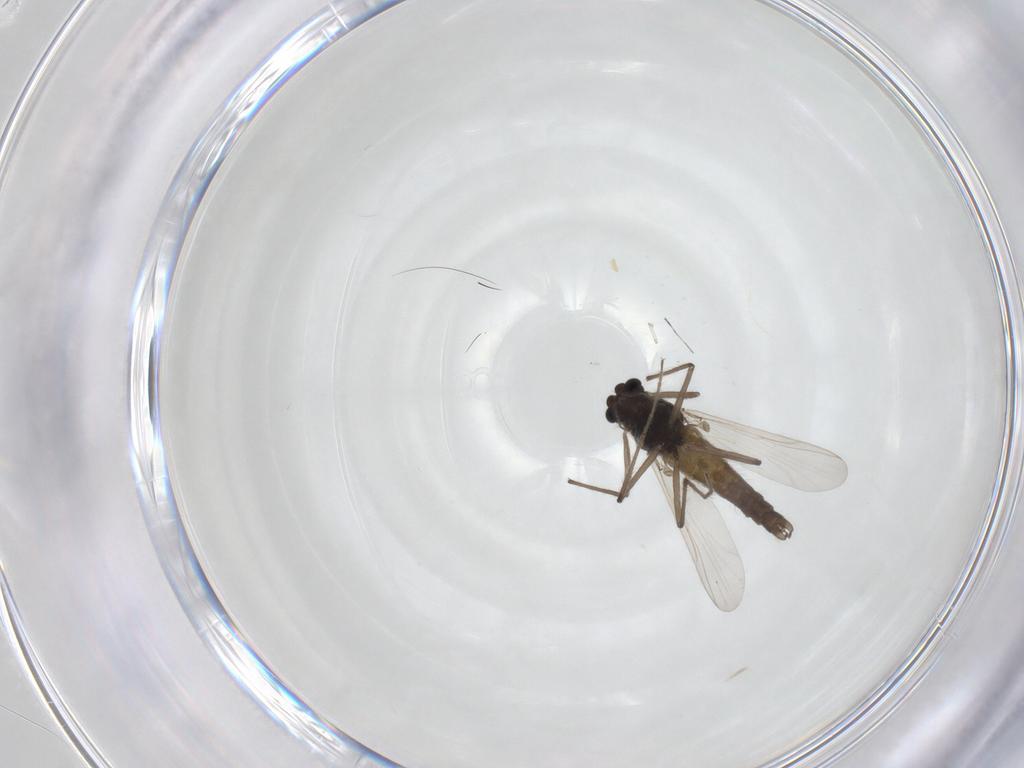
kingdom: Animalia
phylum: Arthropoda
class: Insecta
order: Diptera
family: Chironomidae
